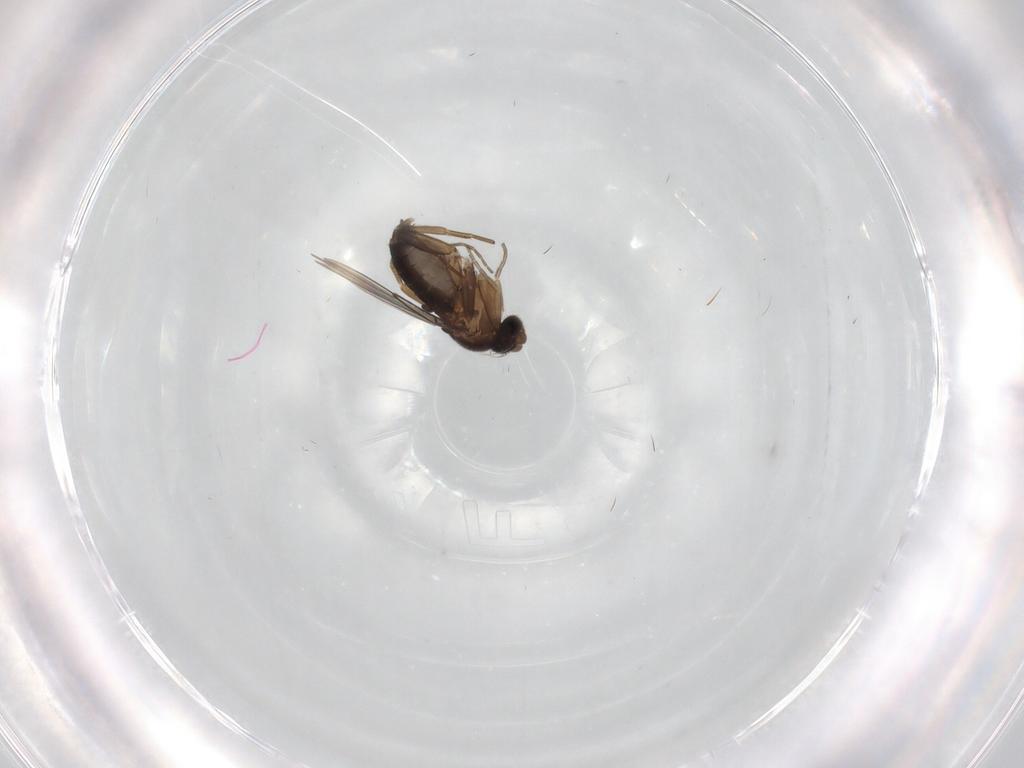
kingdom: Animalia
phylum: Arthropoda
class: Insecta
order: Diptera
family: Phoridae
